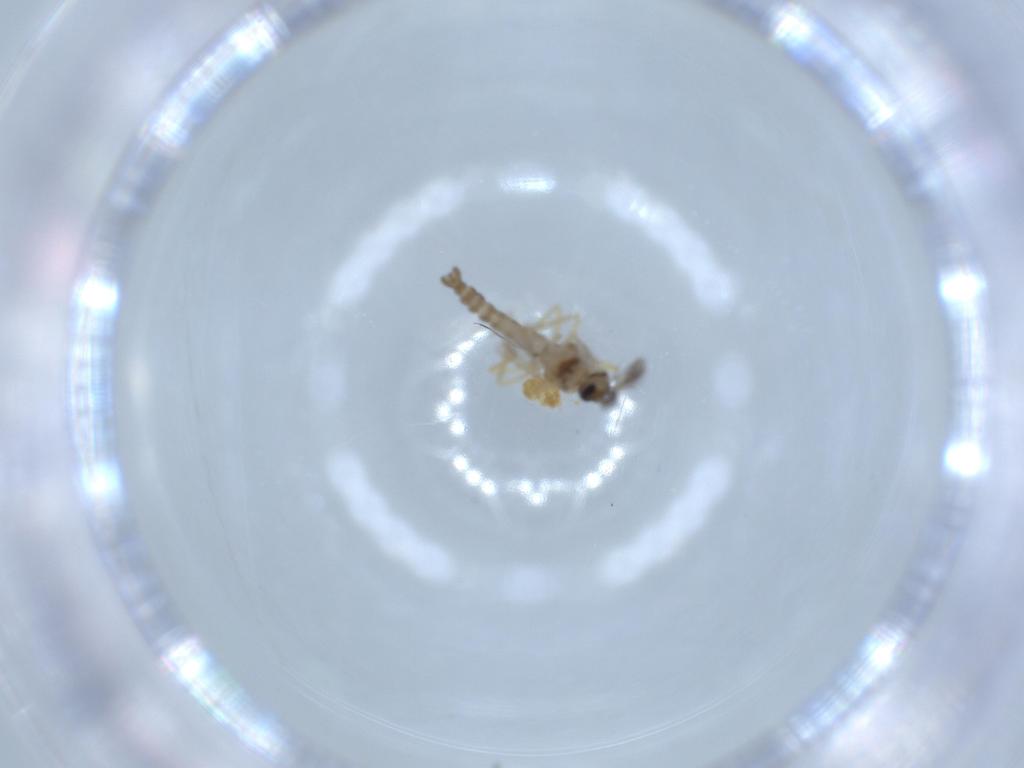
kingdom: Animalia
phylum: Arthropoda
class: Insecta
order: Diptera
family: Ceratopogonidae
